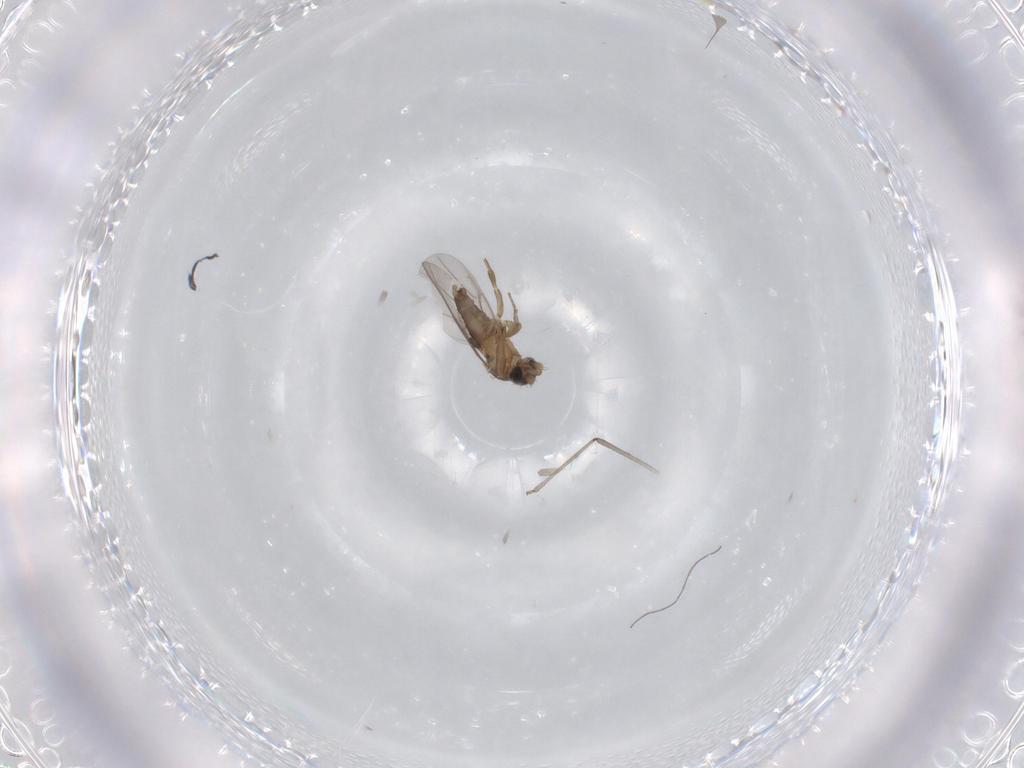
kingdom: Animalia
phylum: Arthropoda
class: Insecta
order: Diptera
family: Phoridae
